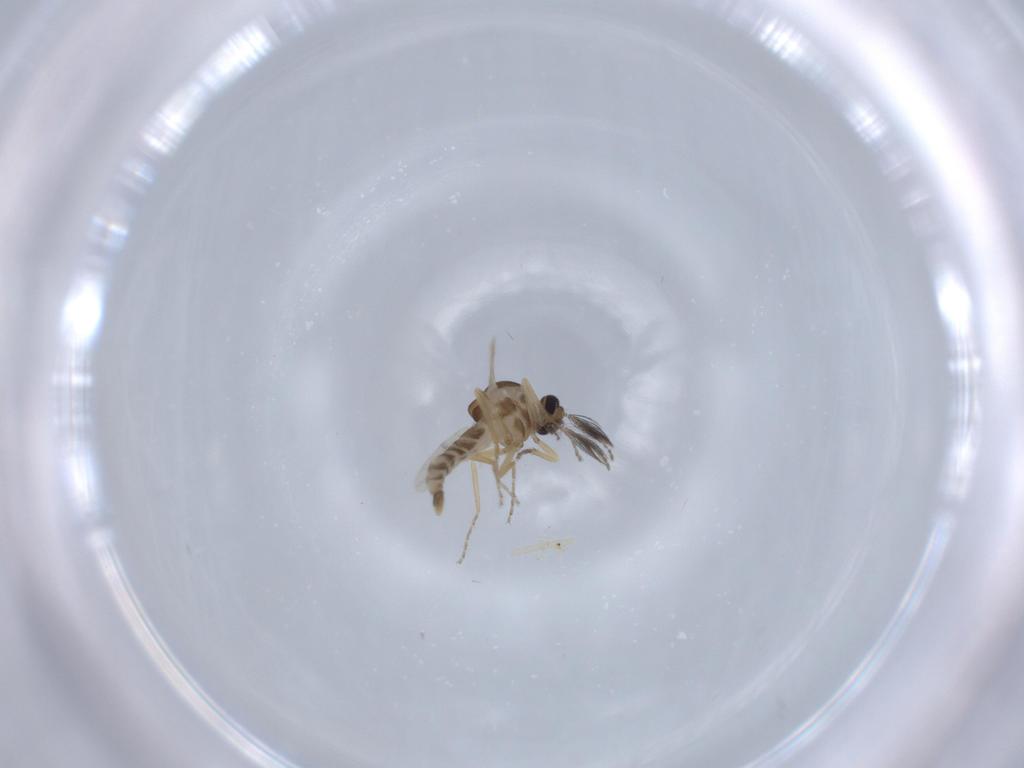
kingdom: Animalia
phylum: Arthropoda
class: Insecta
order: Diptera
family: Ceratopogonidae
